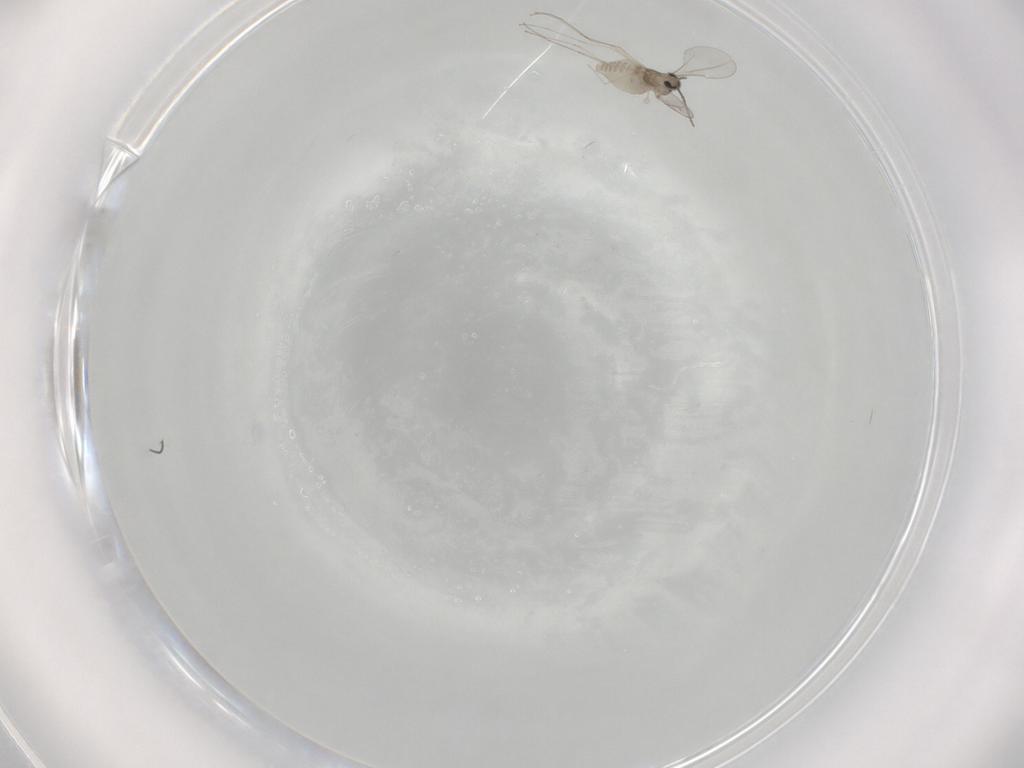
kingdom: Animalia
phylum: Arthropoda
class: Insecta
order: Diptera
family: Cecidomyiidae
